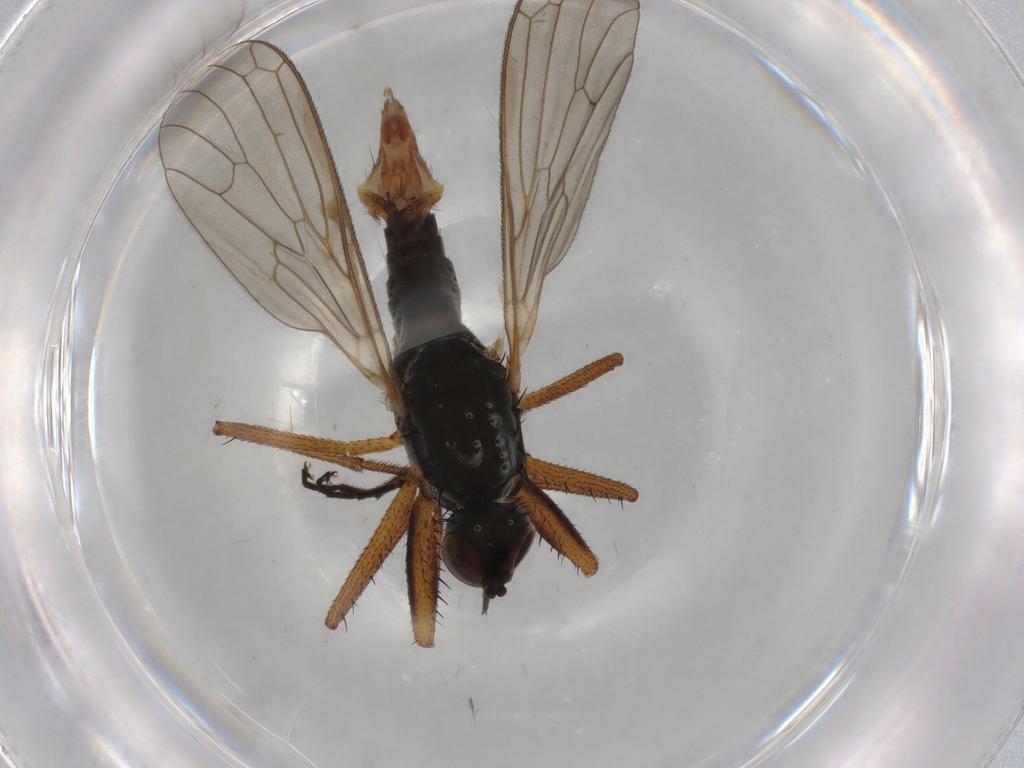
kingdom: Animalia
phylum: Arthropoda
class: Insecta
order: Diptera
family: Empididae
